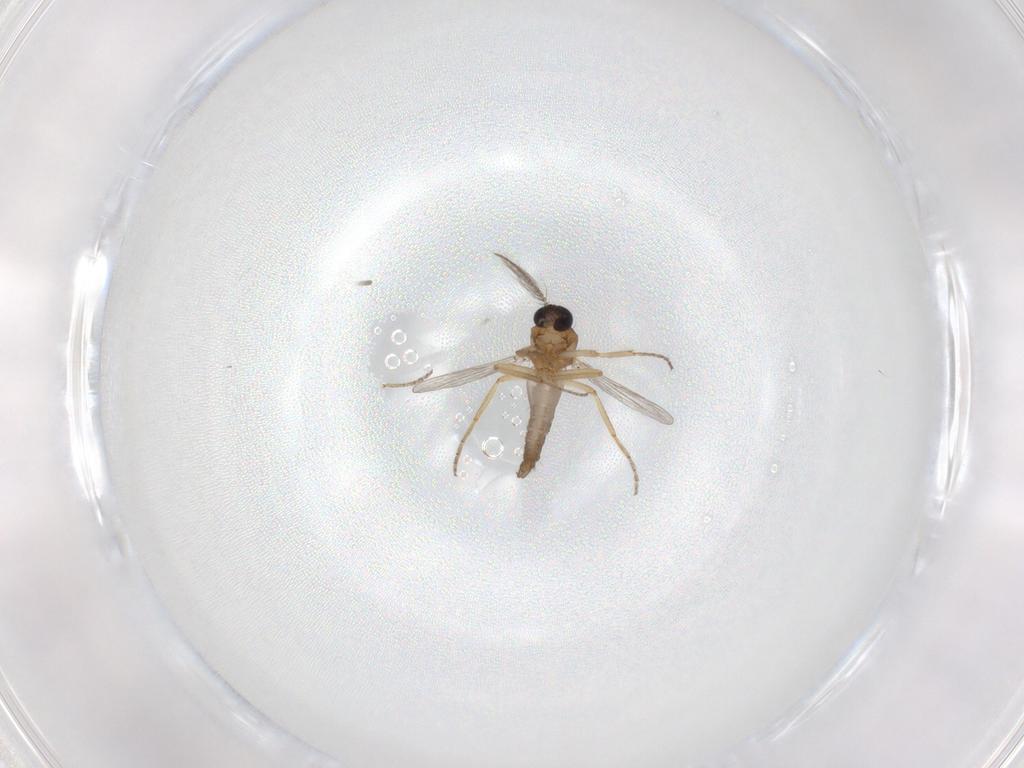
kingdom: Animalia
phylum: Arthropoda
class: Insecta
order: Diptera
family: Ceratopogonidae
